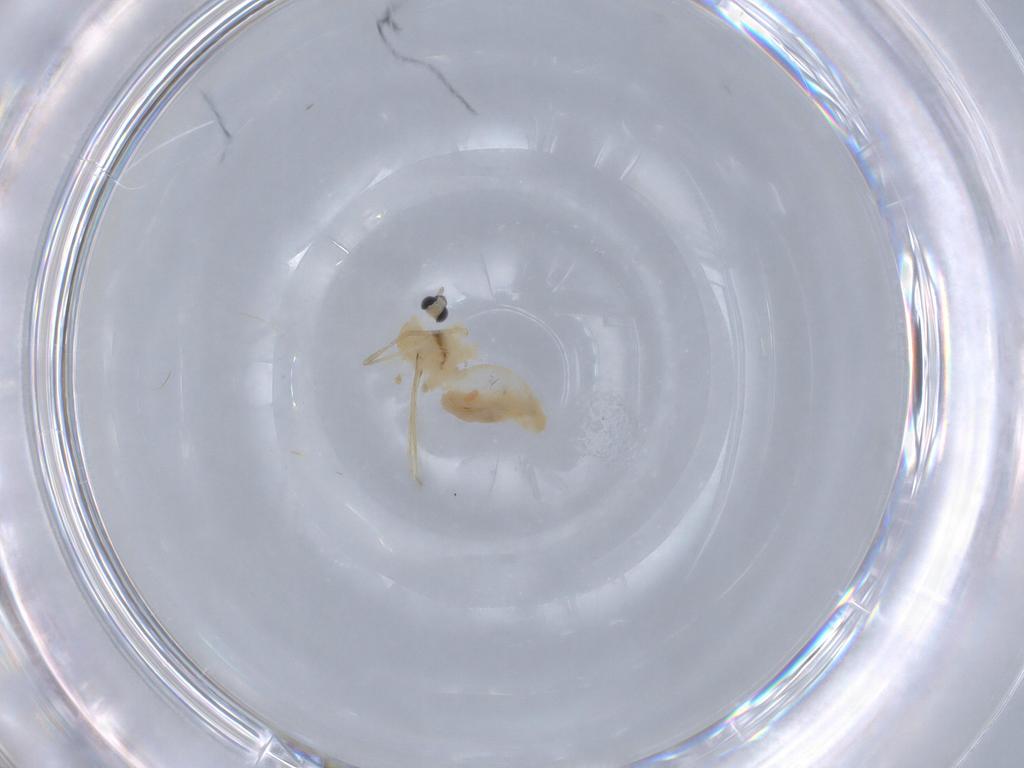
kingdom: Animalia
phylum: Arthropoda
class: Insecta
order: Diptera
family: Cecidomyiidae
